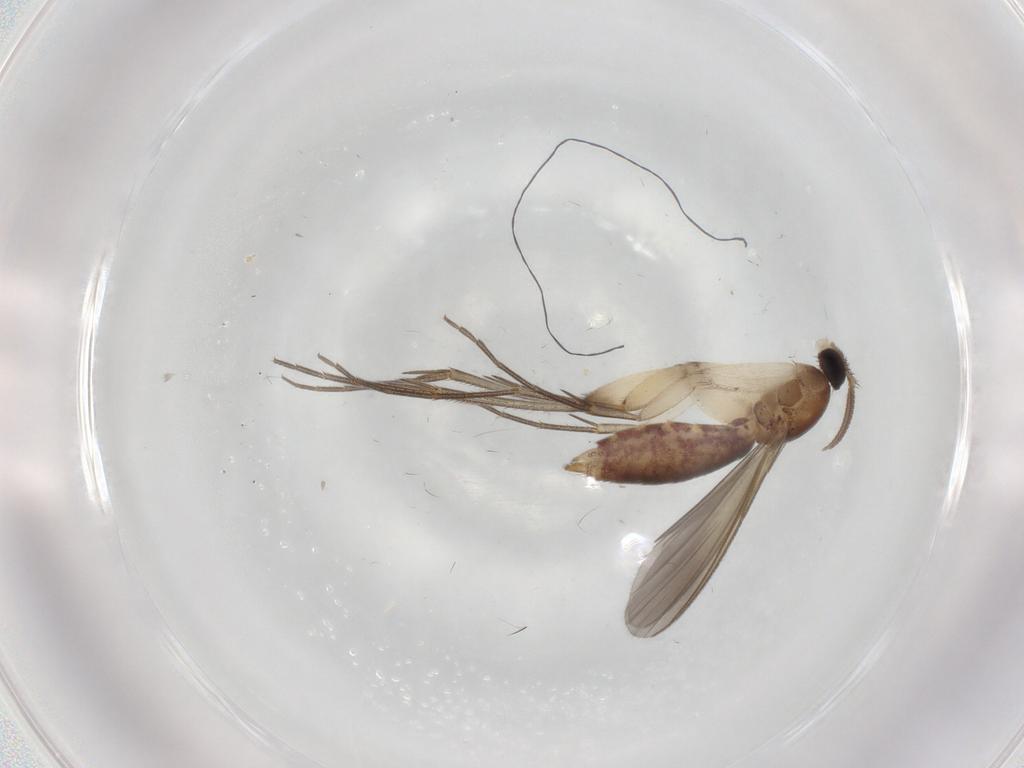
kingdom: Animalia
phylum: Arthropoda
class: Insecta
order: Diptera
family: Mycetophilidae
